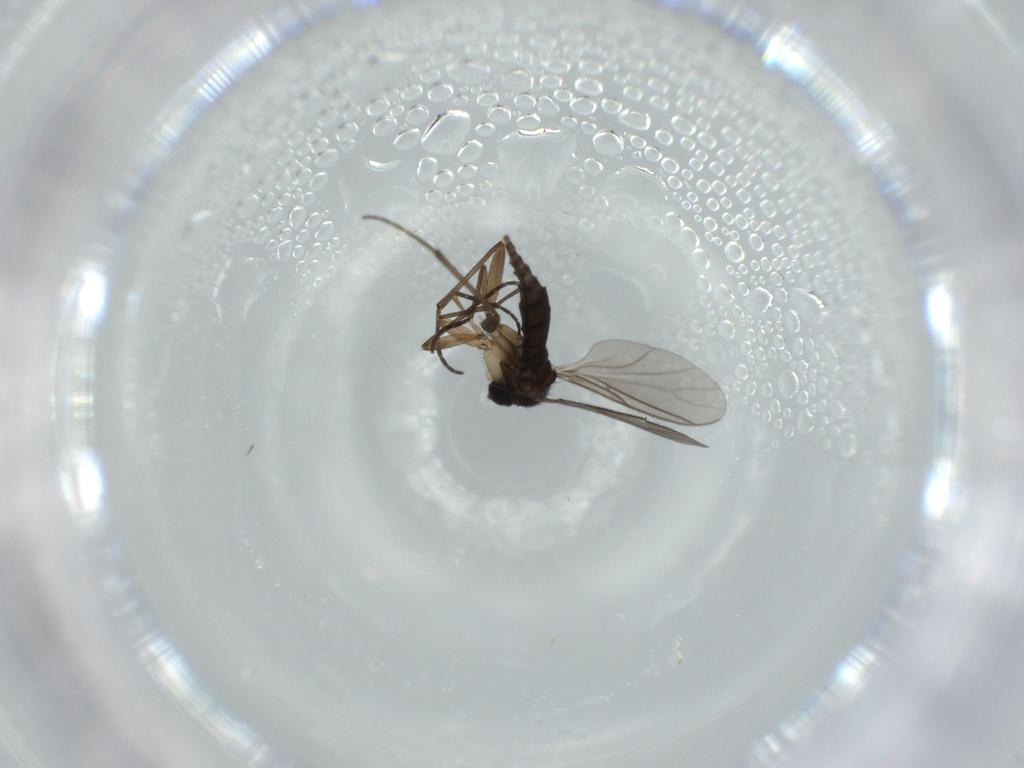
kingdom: Animalia
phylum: Arthropoda
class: Insecta
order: Diptera
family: Sciaridae
